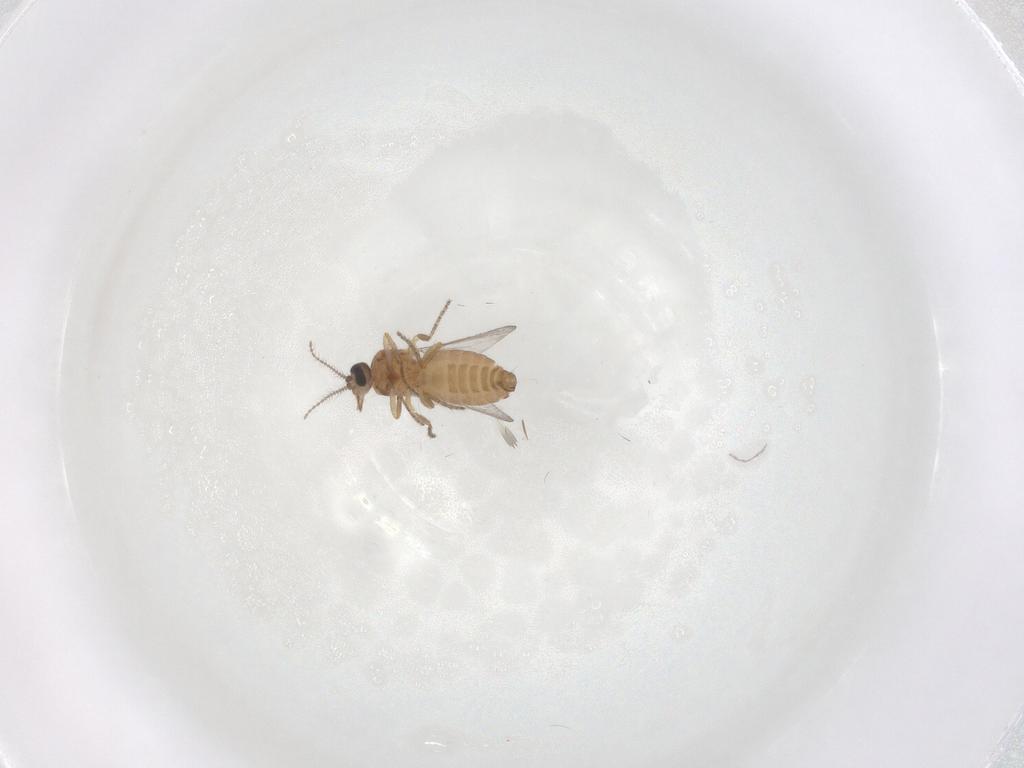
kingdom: Animalia
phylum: Arthropoda
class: Insecta
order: Diptera
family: Ceratopogonidae
